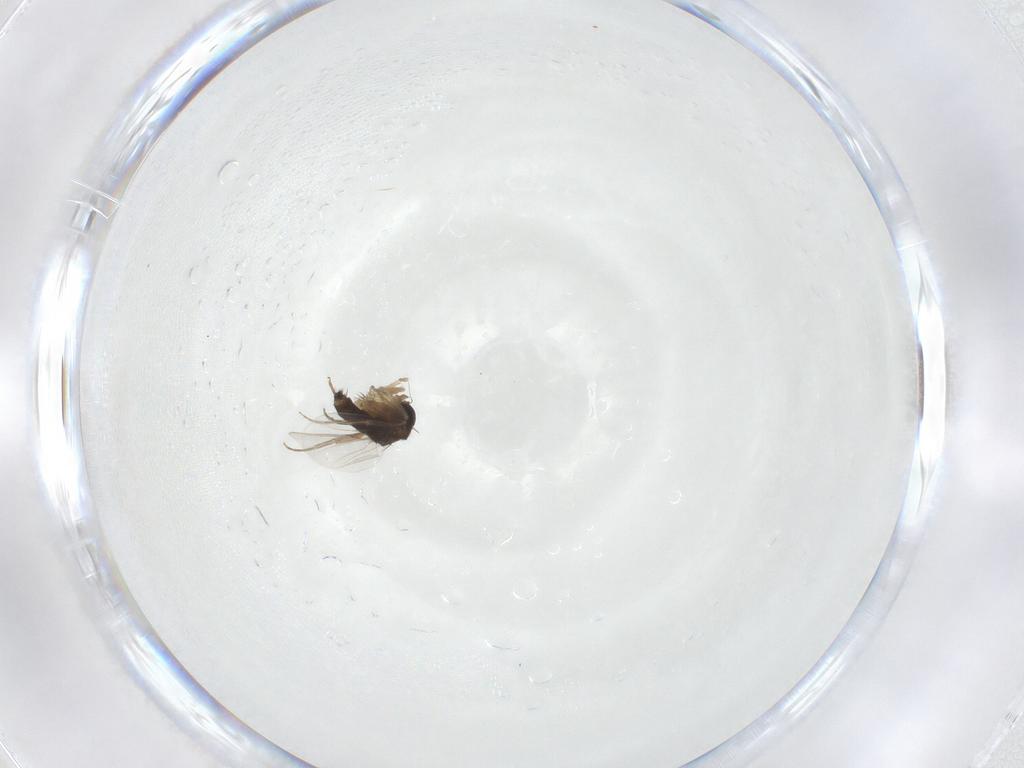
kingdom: Animalia
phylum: Arthropoda
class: Insecta
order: Diptera
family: Phoridae
